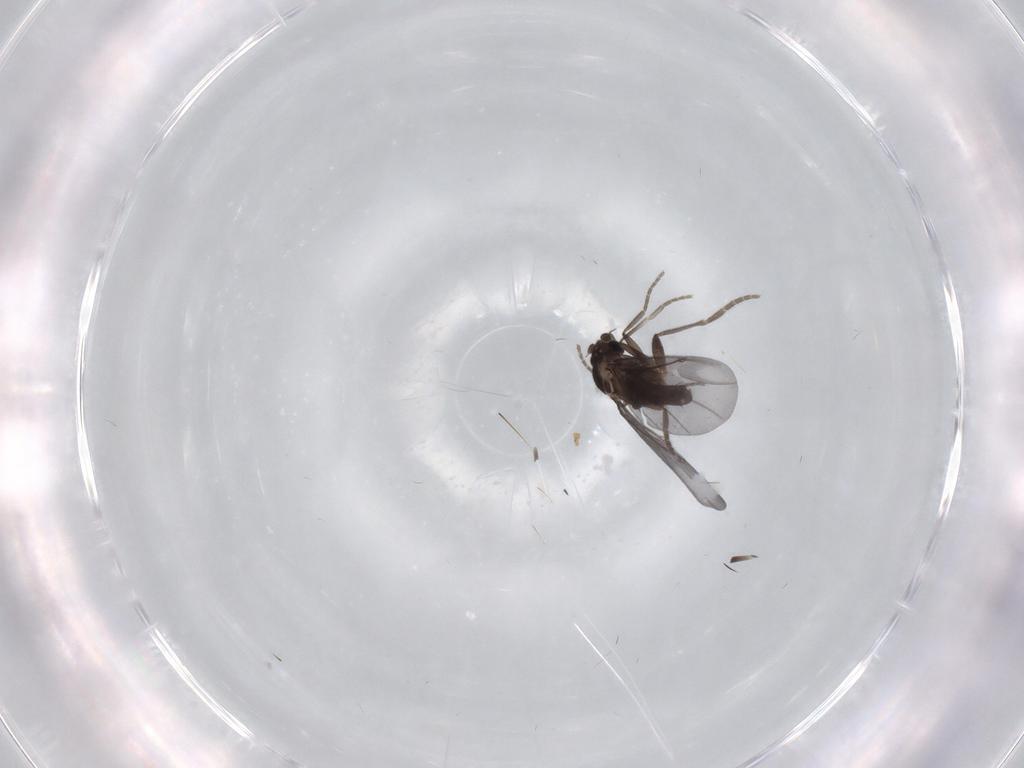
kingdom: Animalia
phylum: Arthropoda
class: Insecta
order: Diptera
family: Phoridae
